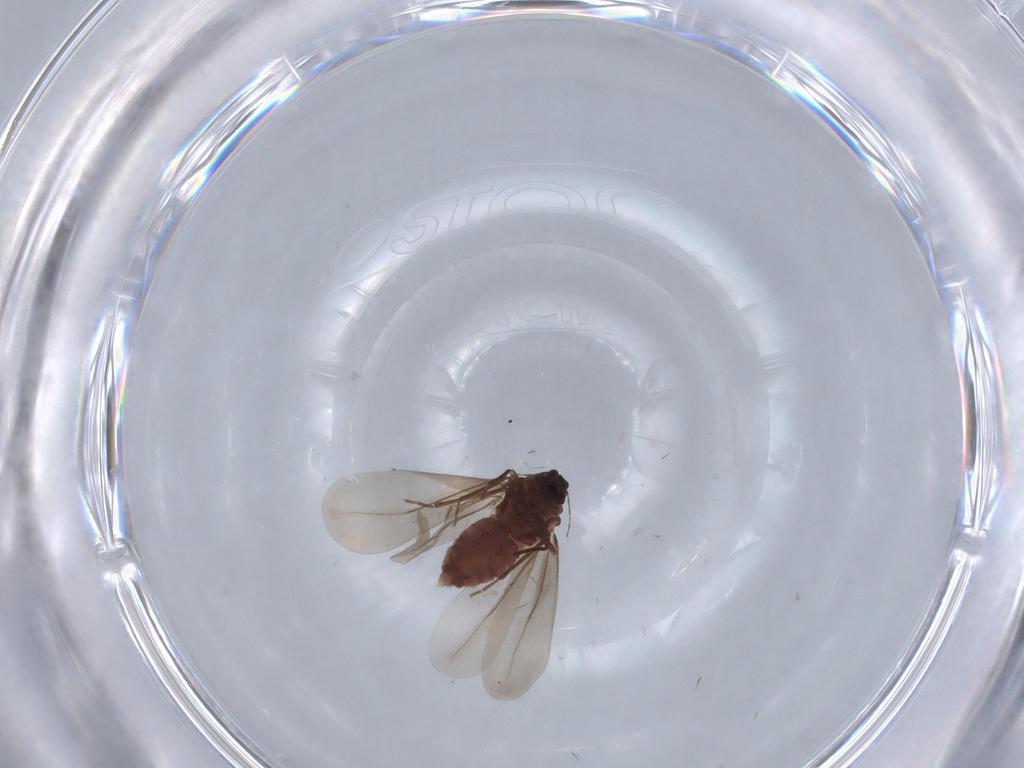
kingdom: Animalia
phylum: Arthropoda
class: Insecta
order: Hemiptera
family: Aleyrodidae
